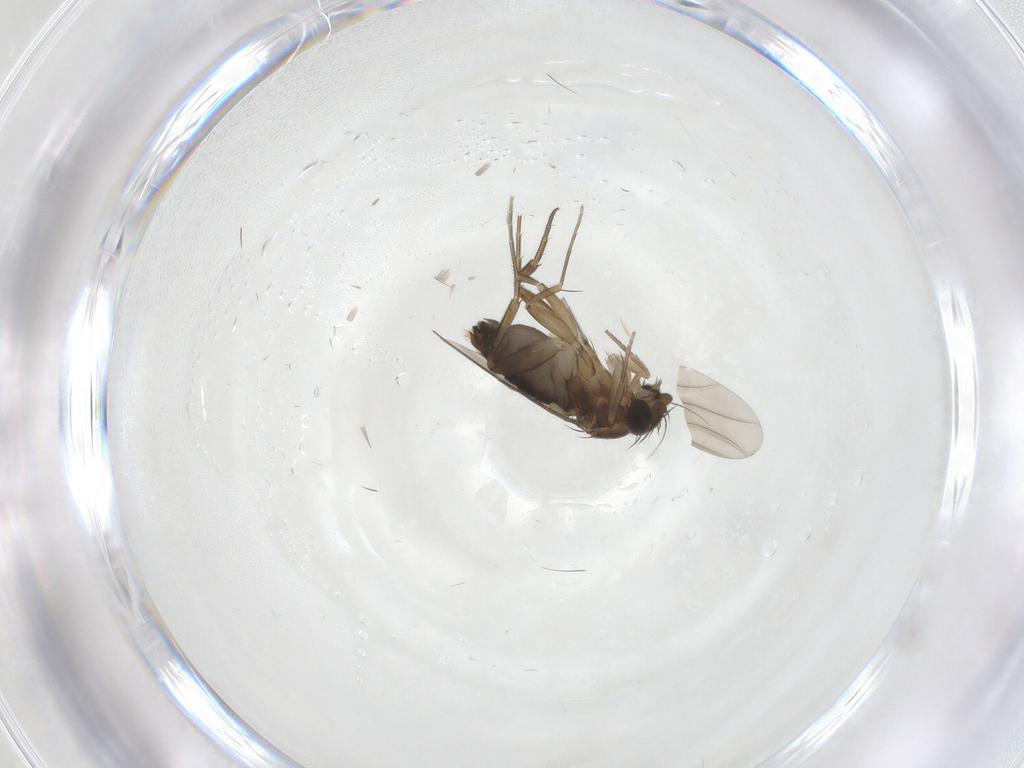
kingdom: Animalia
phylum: Arthropoda
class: Insecta
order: Diptera
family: Phoridae
